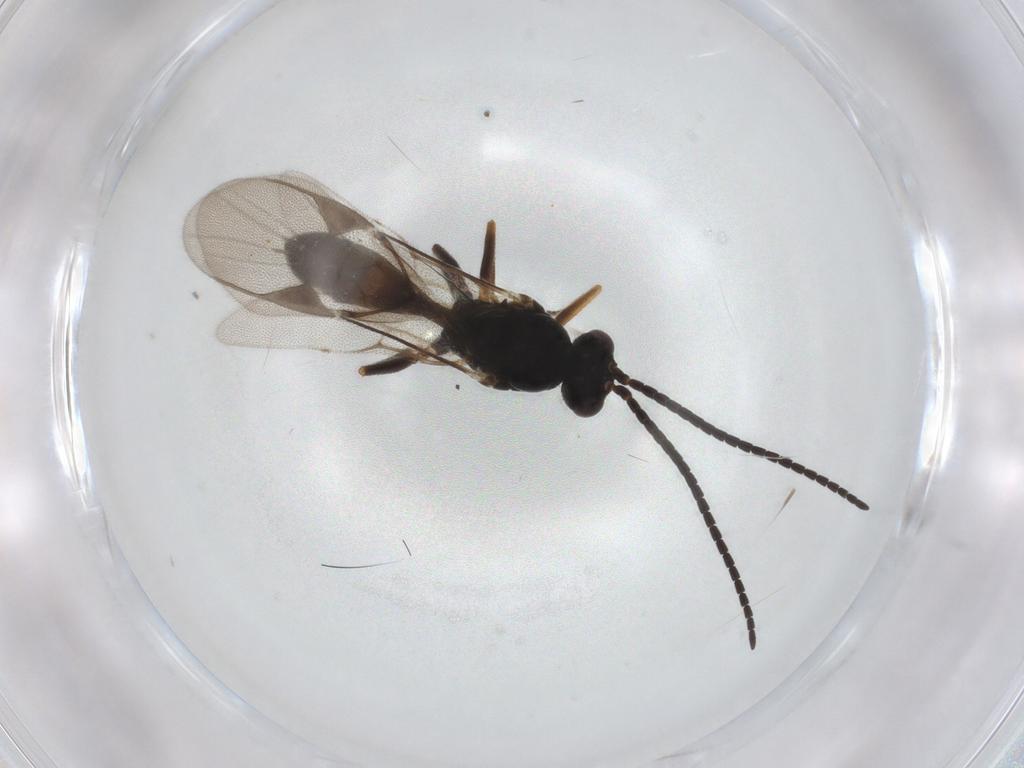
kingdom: Animalia
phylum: Arthropoda
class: Insecta
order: Hymenoptera
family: Braconidae
